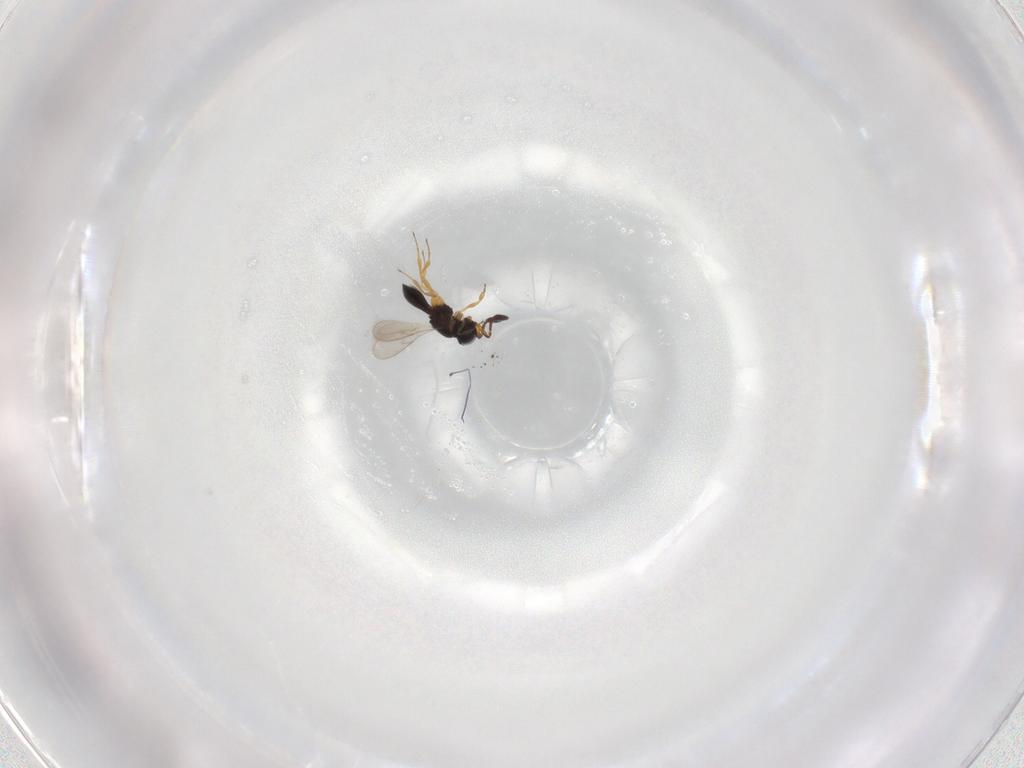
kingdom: Animalia
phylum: Arthropoda
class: Insecta
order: Hymenoptera
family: Scelionidae
